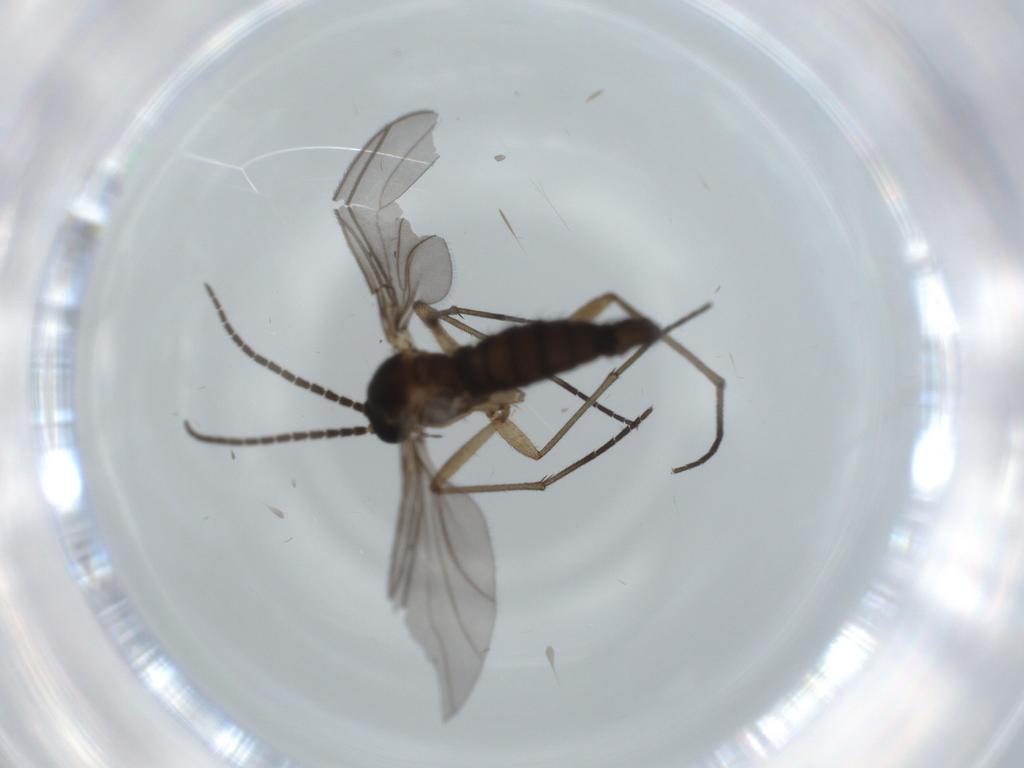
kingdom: Animalia
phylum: Arthropoda
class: Insecta
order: Diptera
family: Sciaridae
